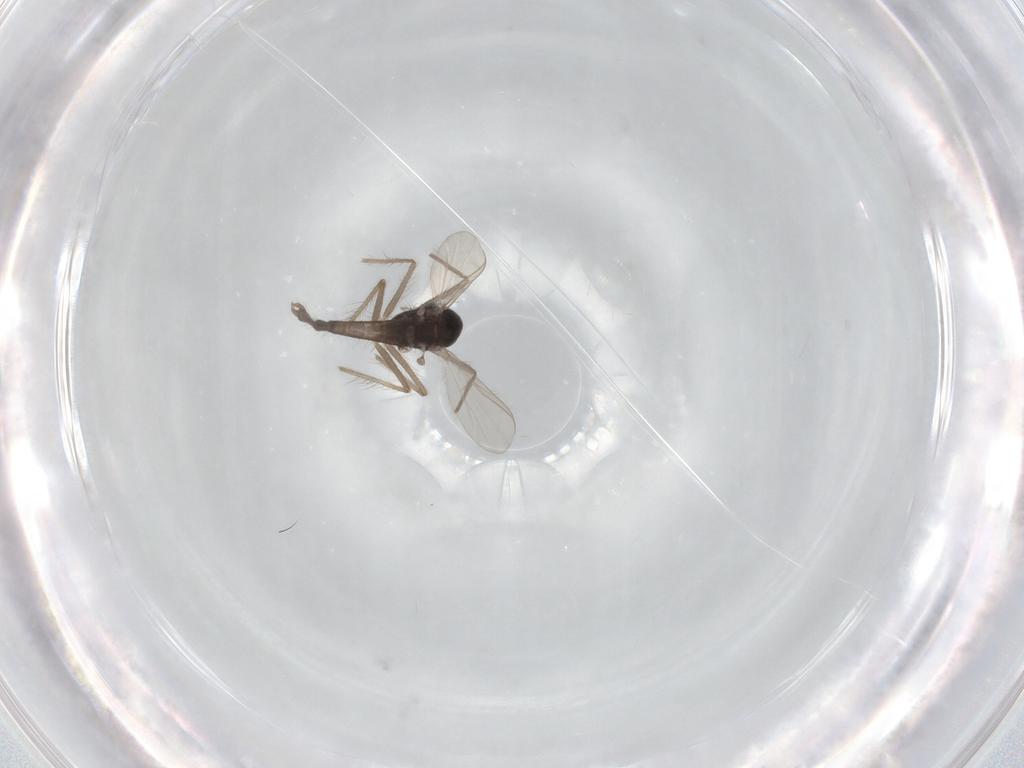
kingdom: Animalia
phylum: Arthropoda
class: Insecta
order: Diptera
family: Chironomidae
